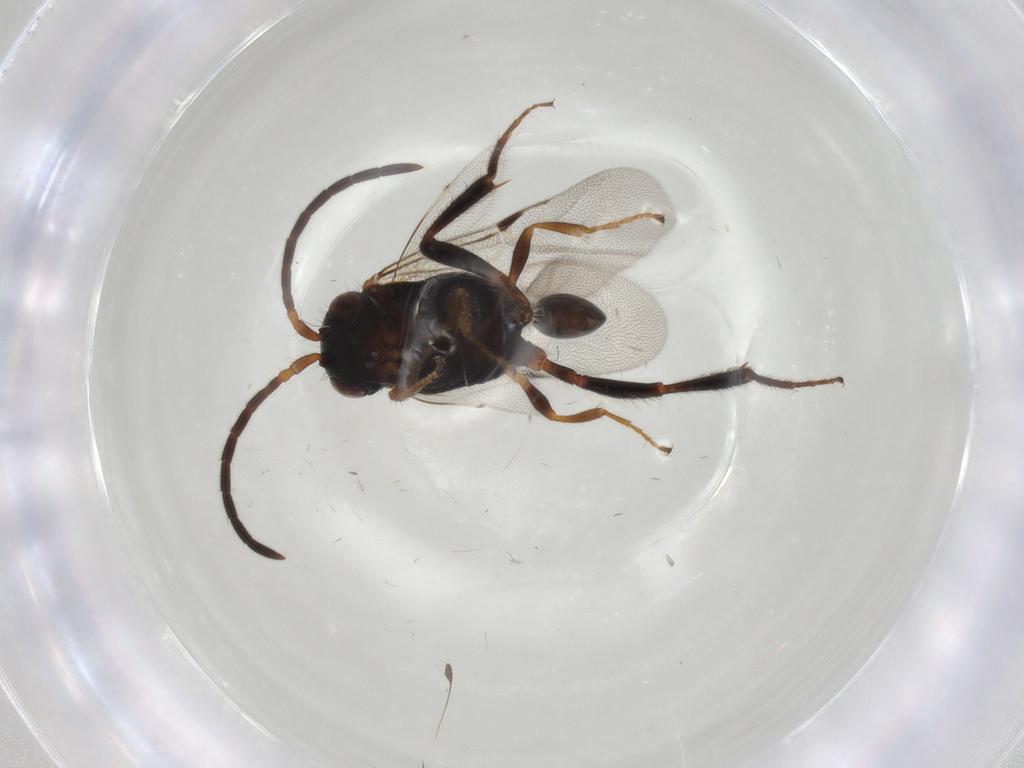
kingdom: Animalia
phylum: Arthropoda
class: Insecta
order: Hymenoptera
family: Evaniidae
